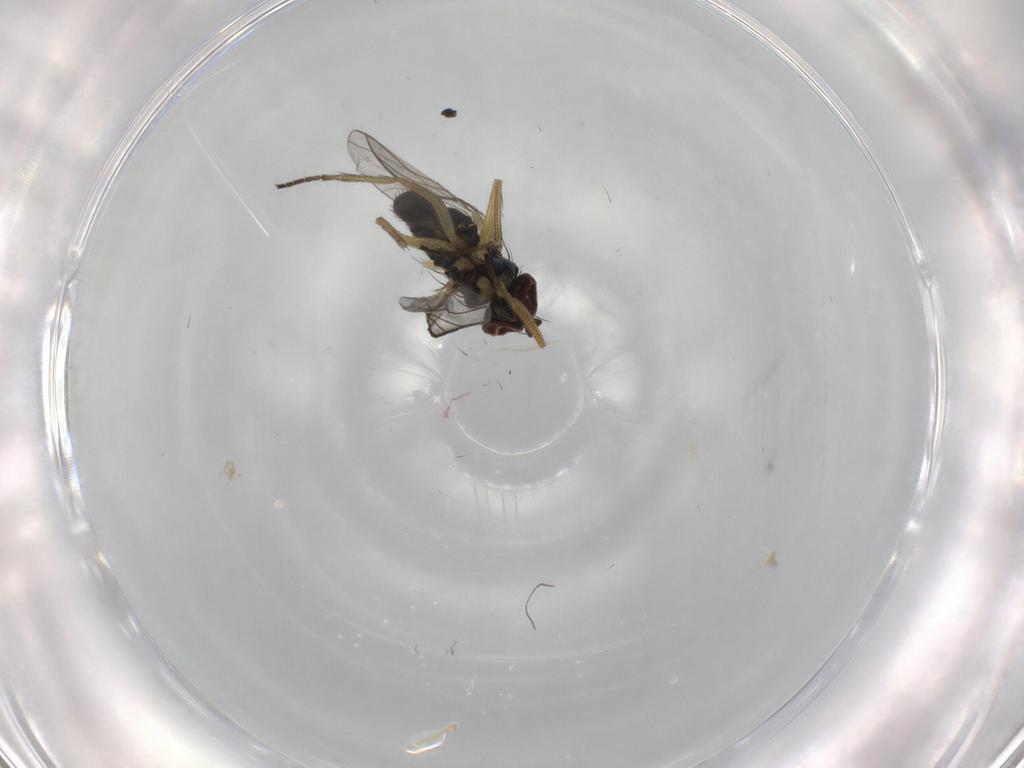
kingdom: Animalia
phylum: Arthropoda
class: Insecta
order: Diptera
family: Dolichopodidae
